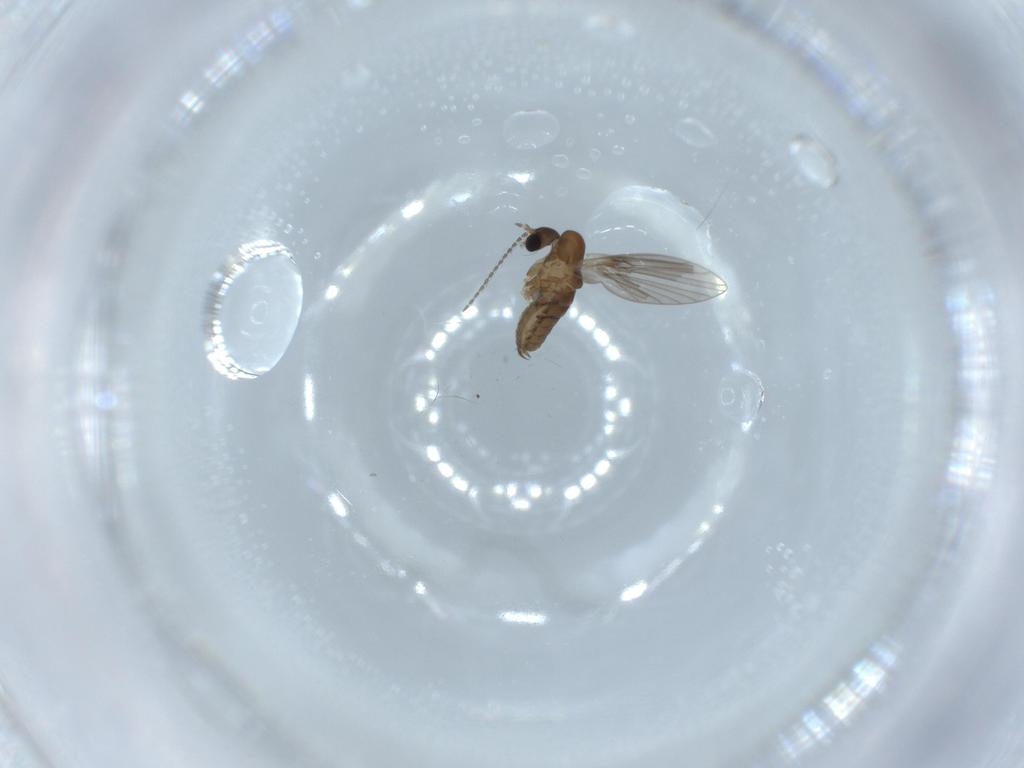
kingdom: Animalia
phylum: Arthropoda
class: Insecta
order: Diptera
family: Psychodidae
